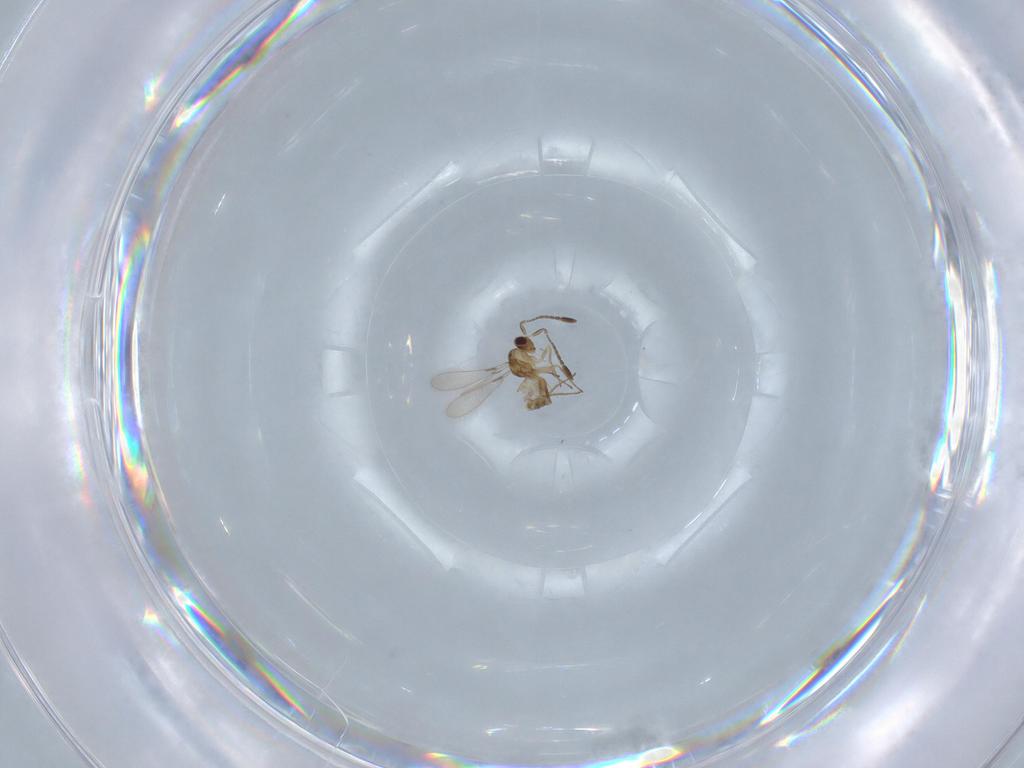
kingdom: Animalia
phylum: Arthropoda
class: Insecta
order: Hymenoptera
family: Mymaridae
